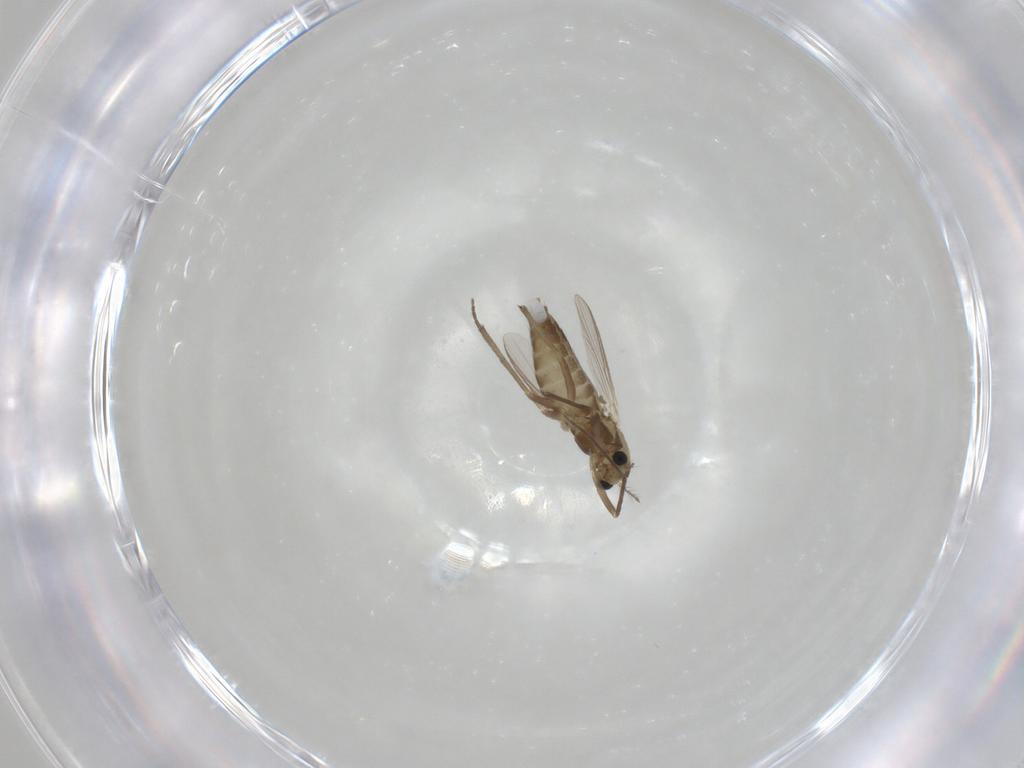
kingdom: Animalia
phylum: Arthropoda
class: Insecta
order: Diptera
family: Chironomidae
